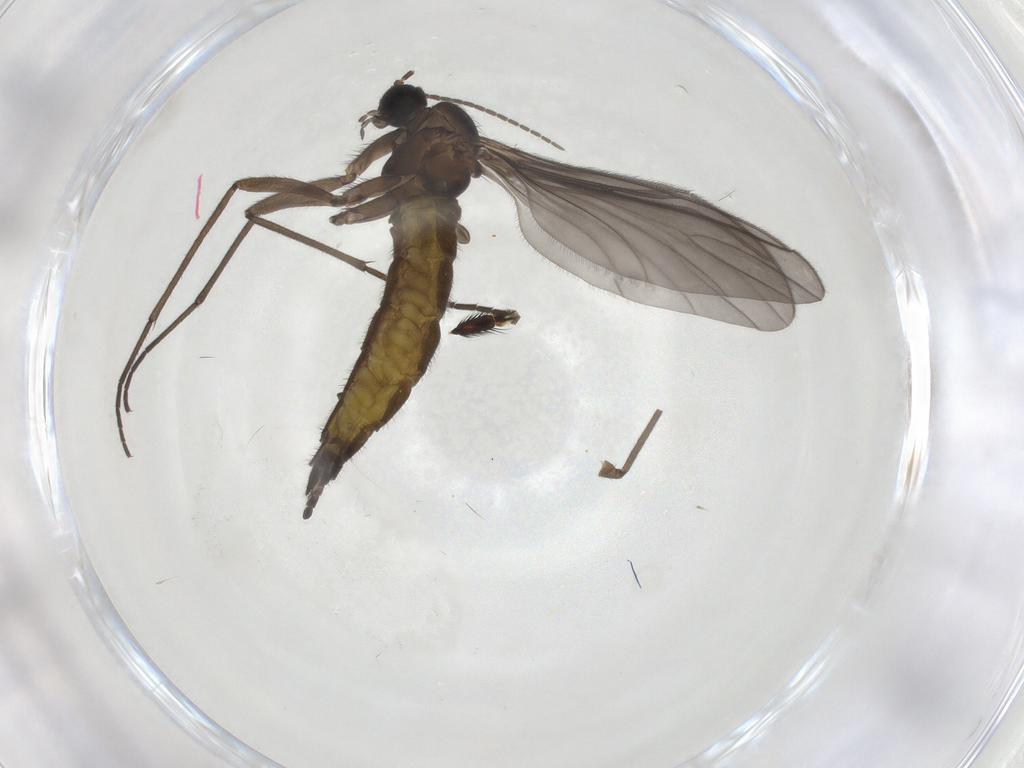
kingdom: Animalia
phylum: Arthropoda
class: Insecta
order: Diptera
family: Sciaridae
